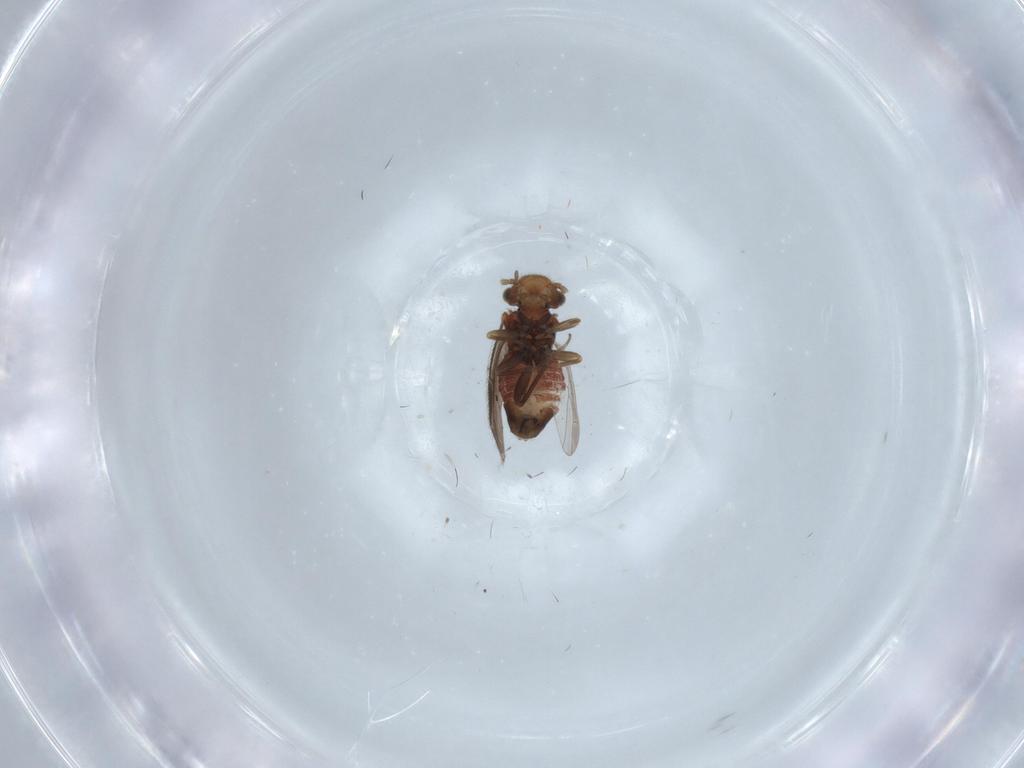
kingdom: Animalia
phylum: Arthropoda
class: Insecta
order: Psocodea
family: Ectopsocidae
